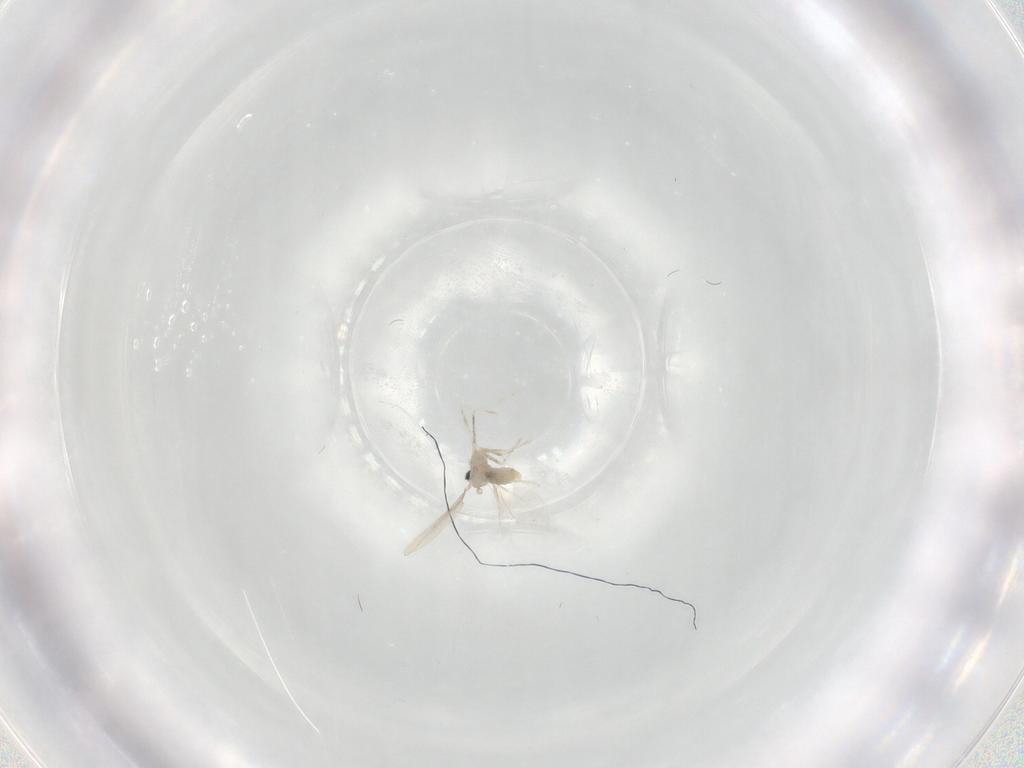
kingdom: Animalia
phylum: Arthropoda
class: Insecta
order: Diptera
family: Cecidomyiidae
